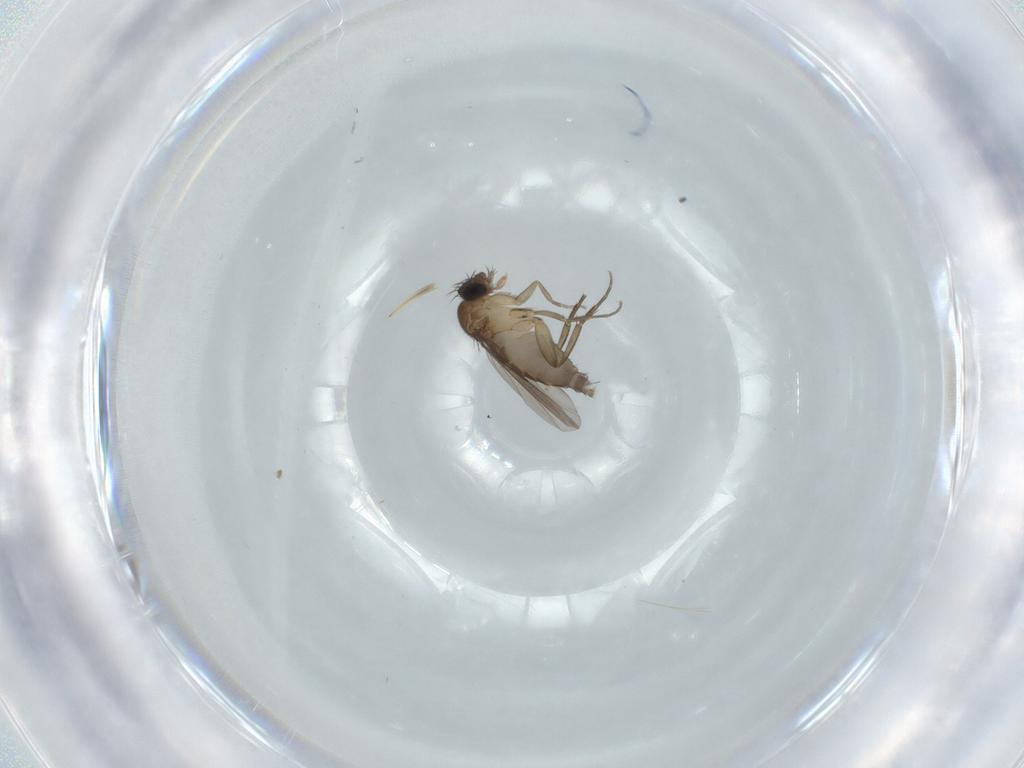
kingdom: Animalia
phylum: Arthropoda
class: Insecta
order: Diptera
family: Phoridae
